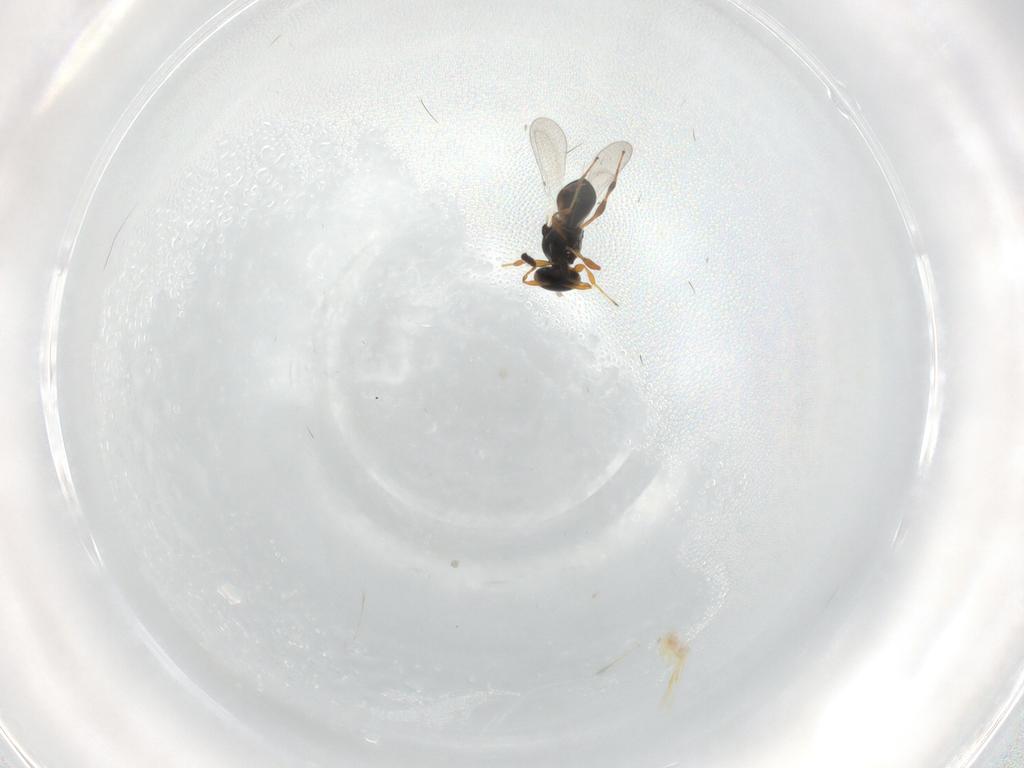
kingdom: Animalia
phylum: Arthropoda
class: Insecta
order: Hymenoptera
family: Platygastridae
